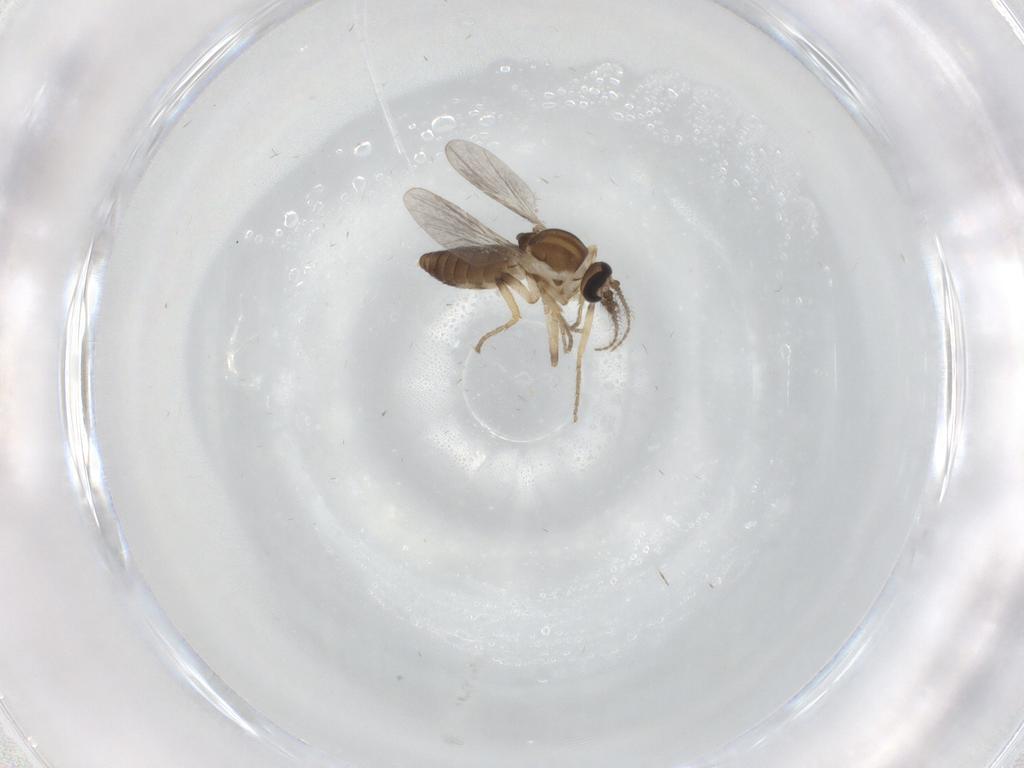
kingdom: Animalia
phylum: Arthropoda
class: Insecta
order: Diptera
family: Ceratopogonidae
